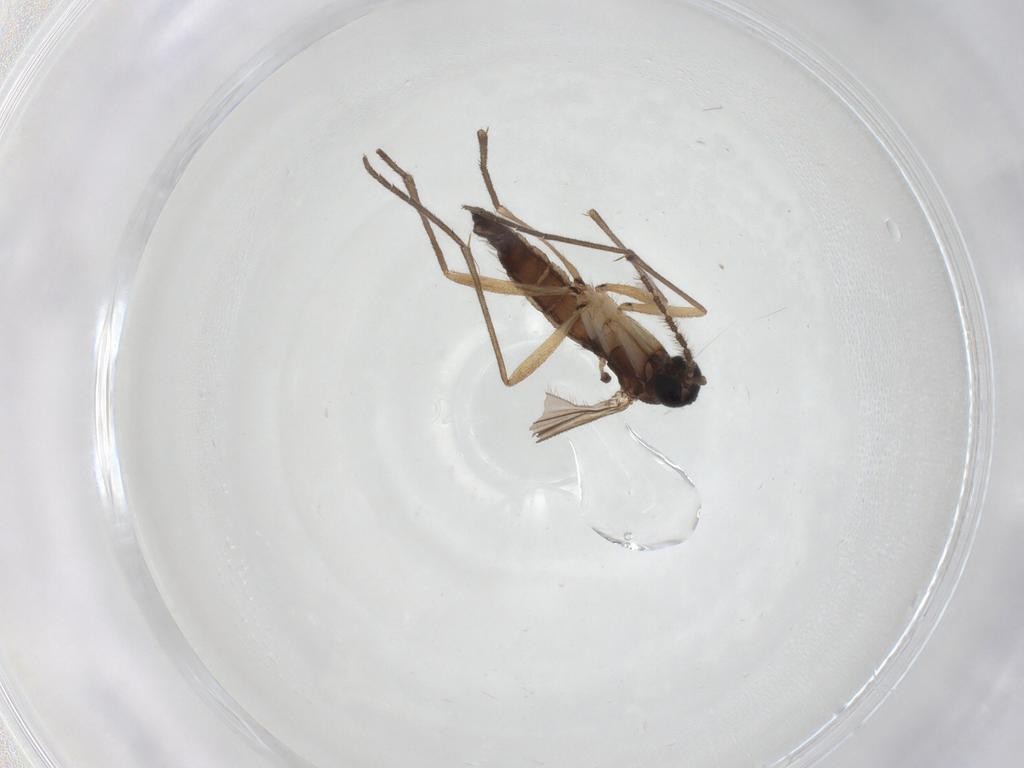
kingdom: Animalia
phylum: Arthropoda
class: Insecta
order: Diptera
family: Sciaridae
